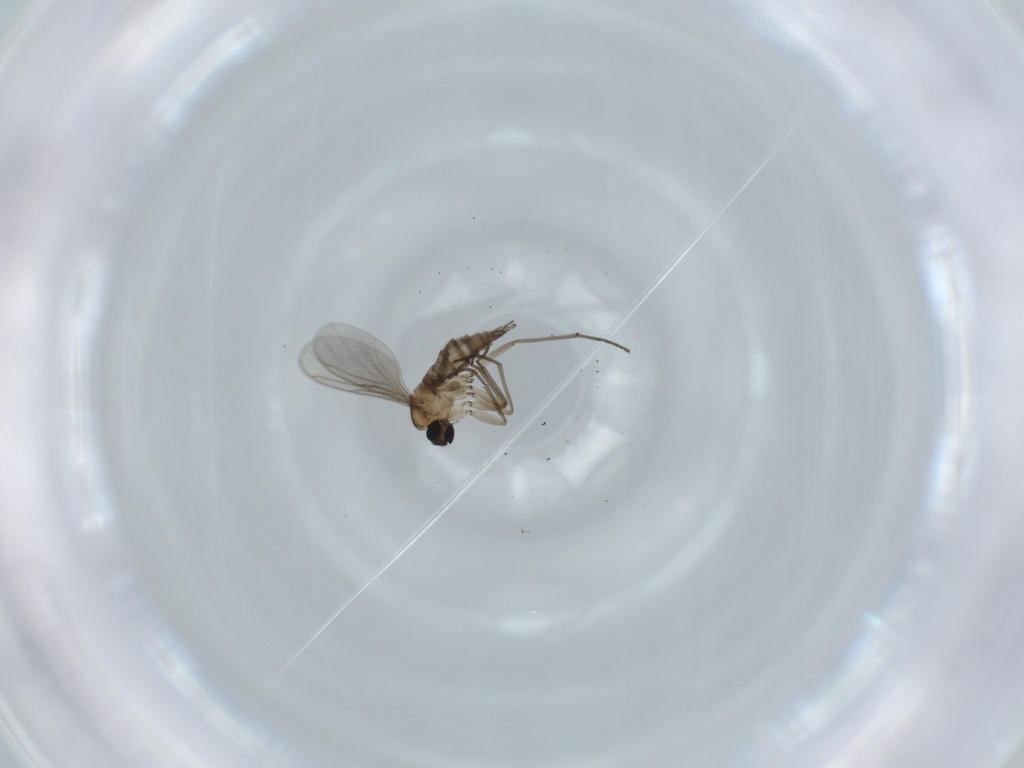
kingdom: Animalia
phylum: Arthropoda
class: Insecta
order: Diptera
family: Sciaridae
